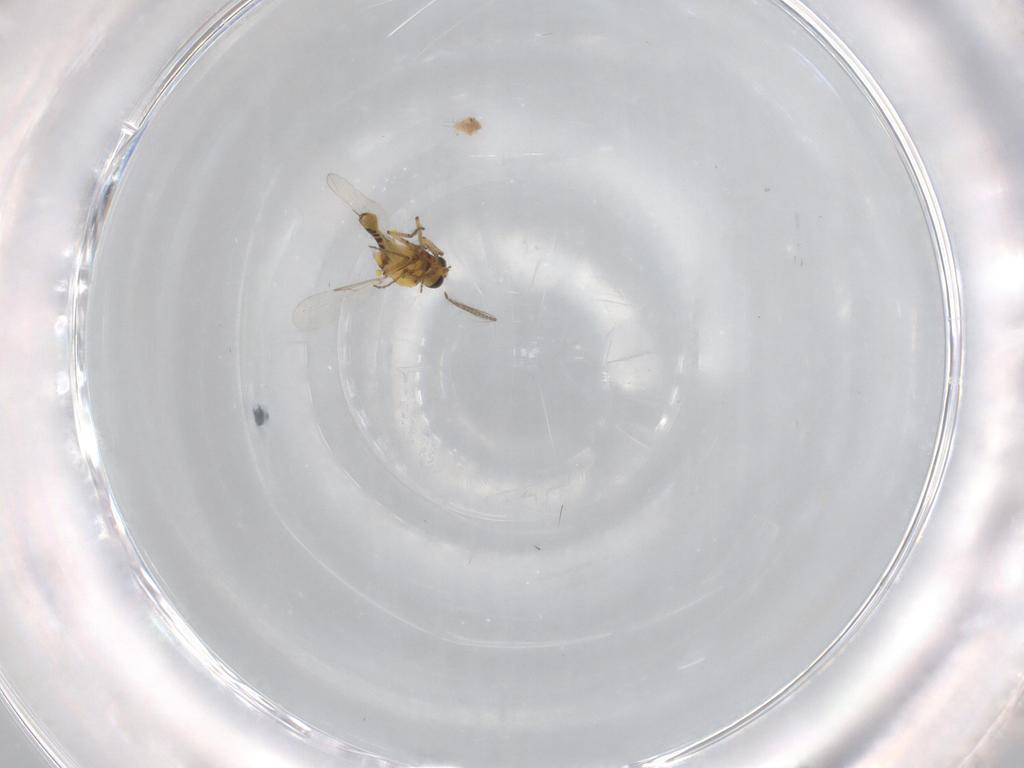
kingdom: Animalia
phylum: Arthropoda
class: Insecta
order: Diptera
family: Ceratopogonidae
